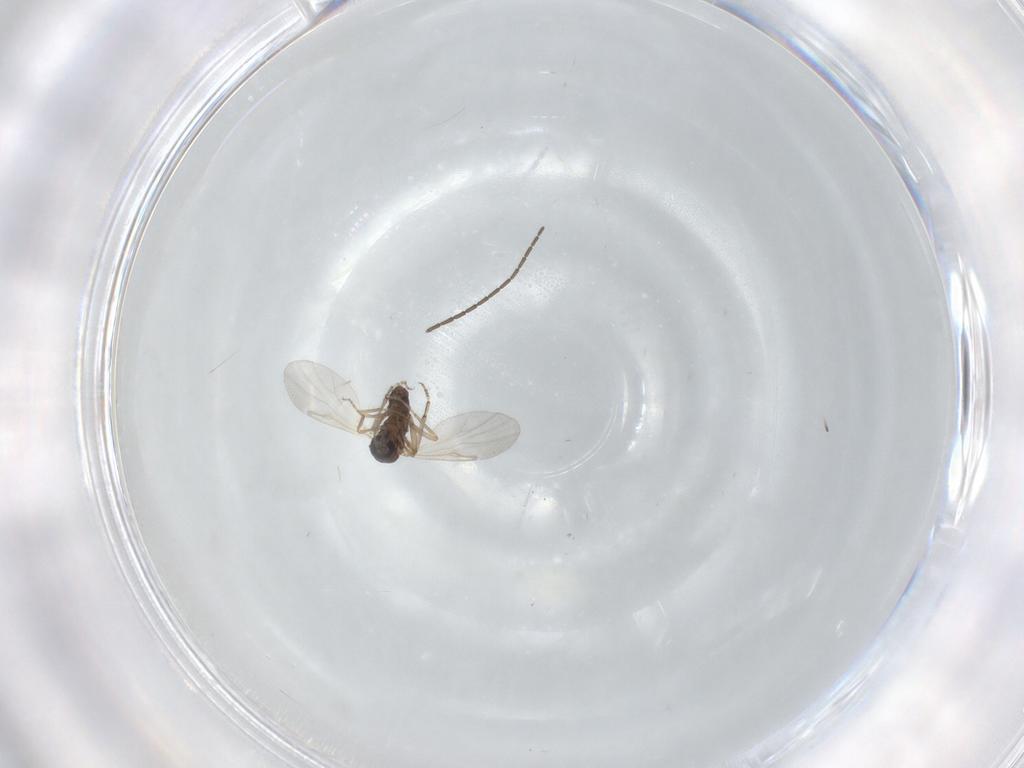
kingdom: Animalia
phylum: Arthropoda
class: Insecta
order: Diptera
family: Ceratopogonidae
